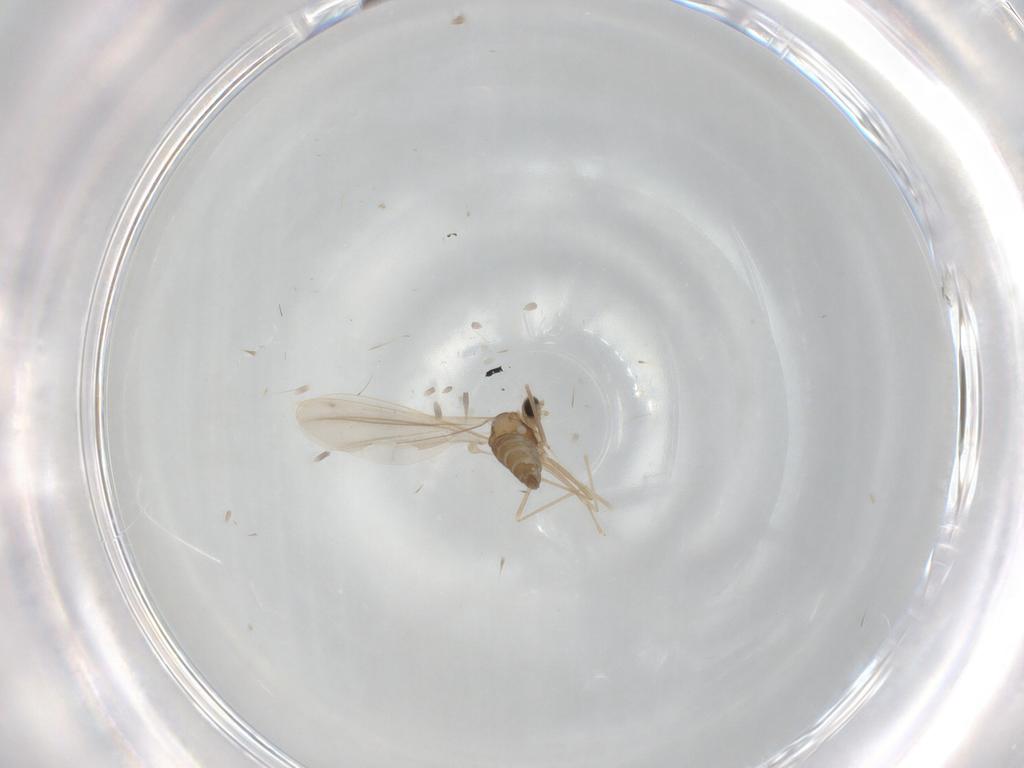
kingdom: Animalia
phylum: Arthropoda
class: Insecta
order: Diptera
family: Cecidomyiidae
